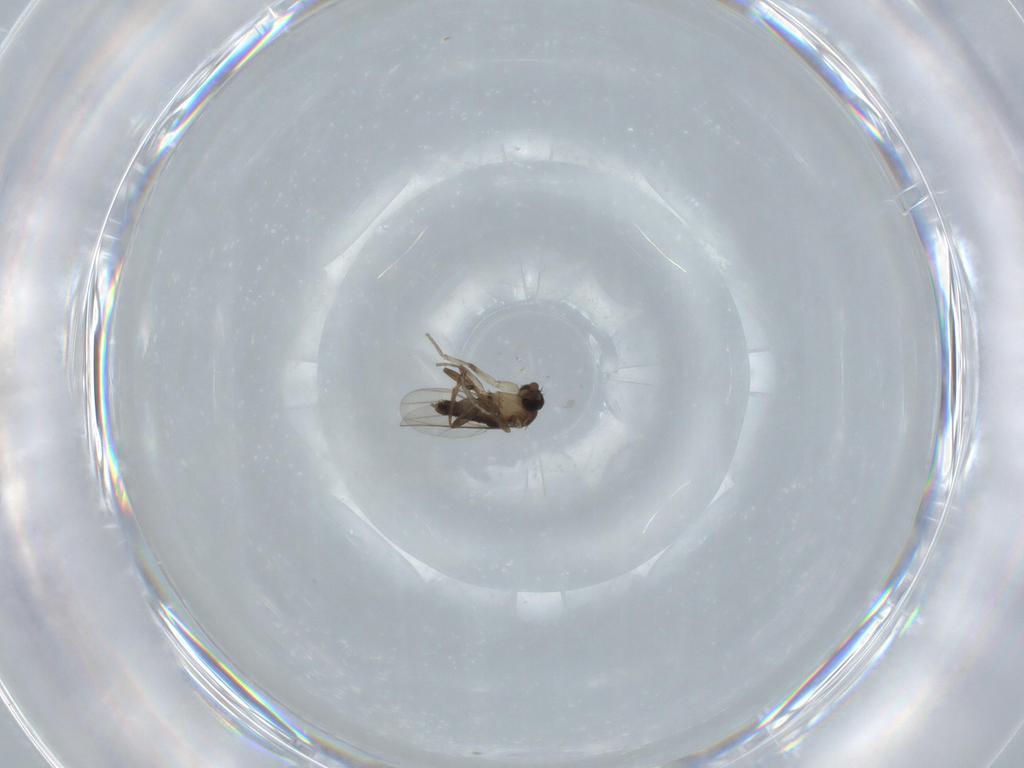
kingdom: Animalia
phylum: Arthropoda
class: Insecta
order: Diptera
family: Phoridae
